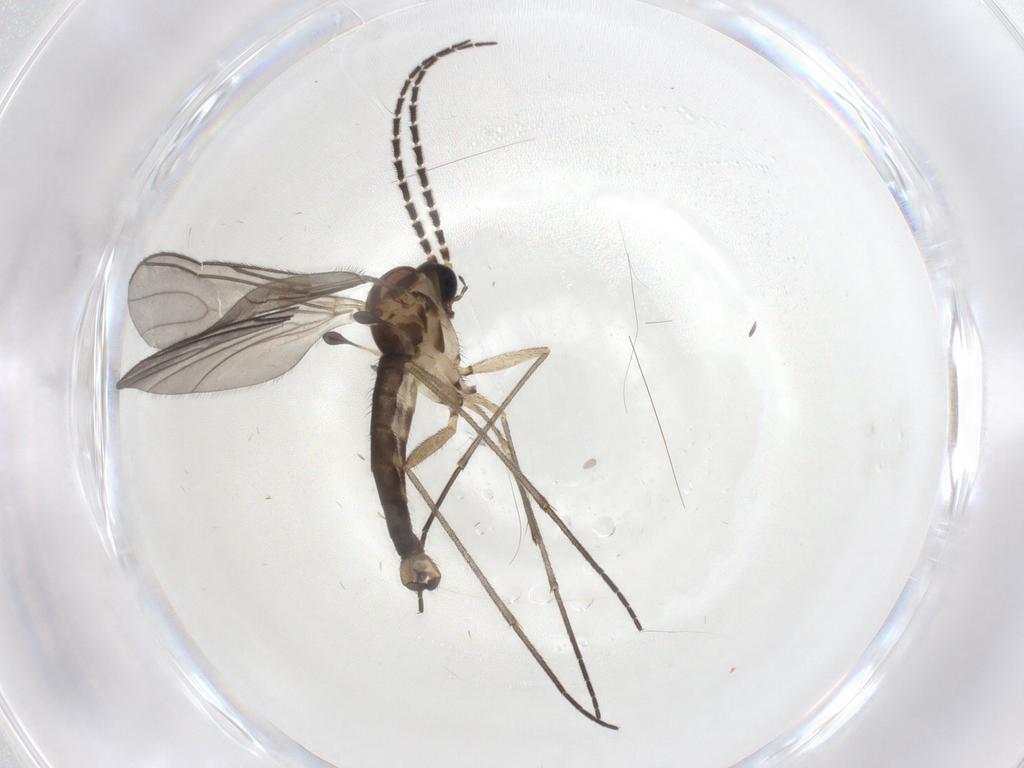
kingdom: Animalia
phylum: Arthropoda
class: Insecta
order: Diptera
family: Sciaridae
